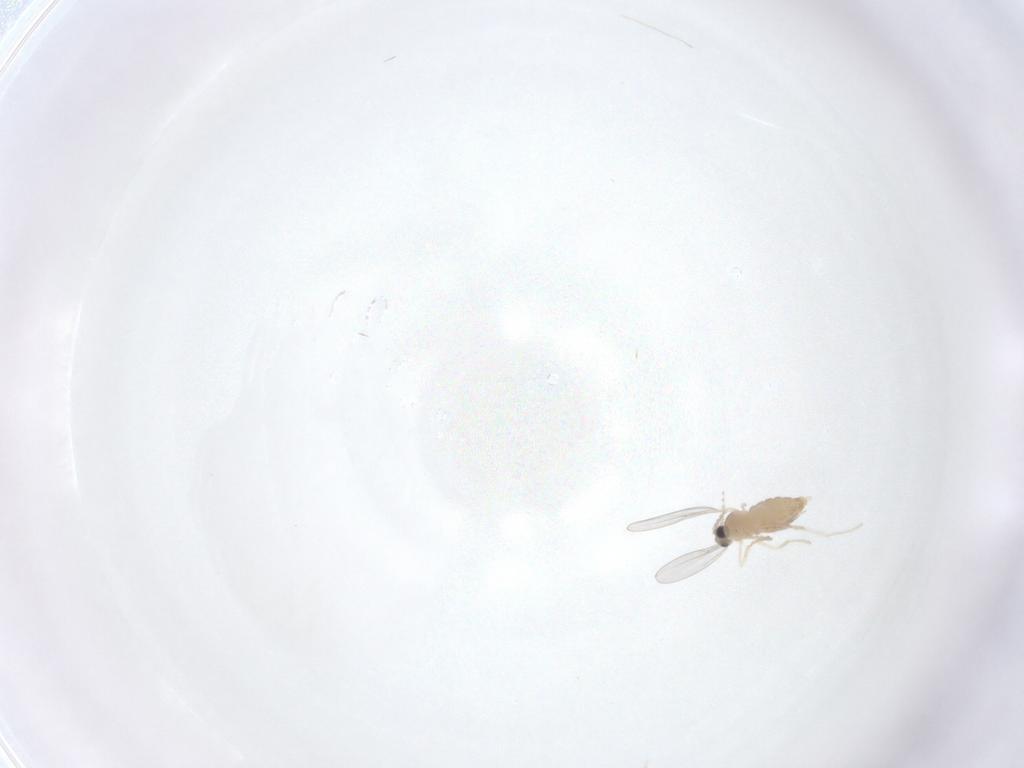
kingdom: Animalia
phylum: Arthropoda
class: Insecta
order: Diptera
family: Cecidomyiidae
